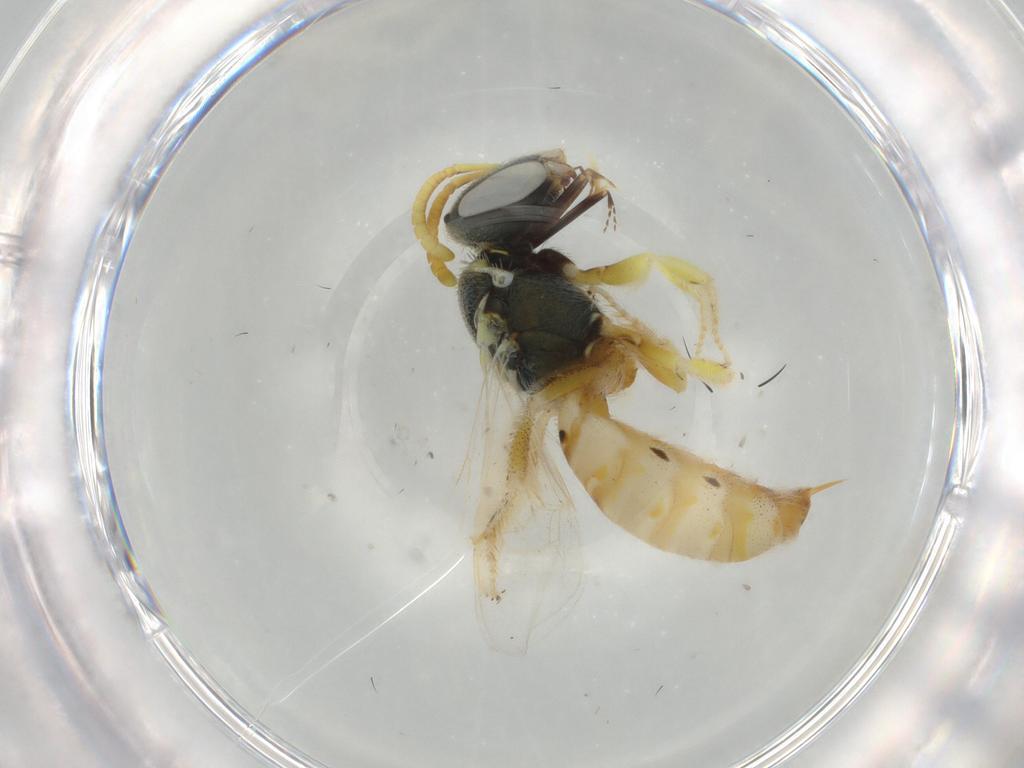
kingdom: Animalia
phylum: Arthropoda
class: Insecta
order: Hymenoptera
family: Halictidae
